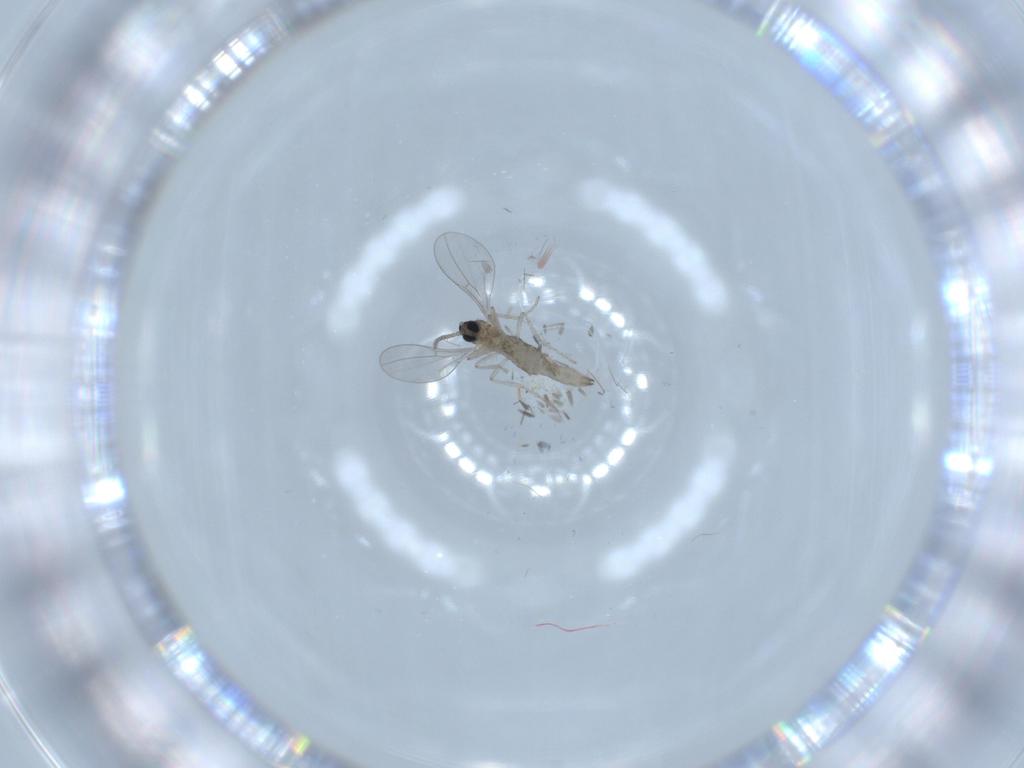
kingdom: Animalia
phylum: Arthropoda
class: Insecta
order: Diptera
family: Cecidomyiidae
